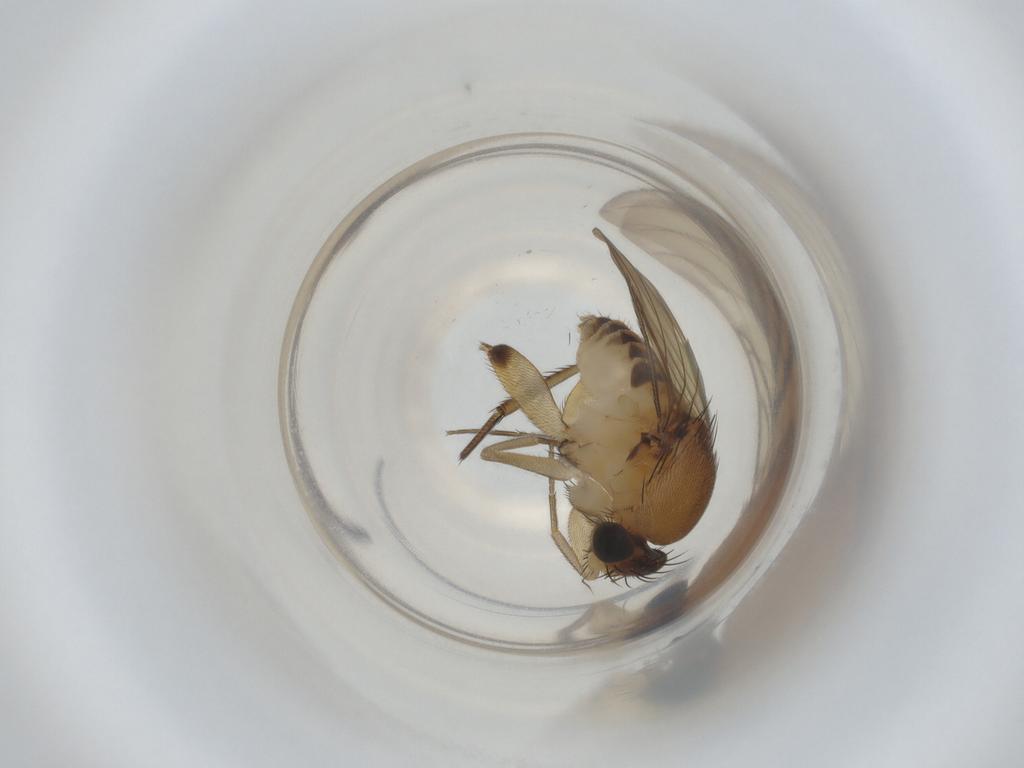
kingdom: Animalia
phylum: Arthropoda
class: Insecta
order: Diptera
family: Phoridae
